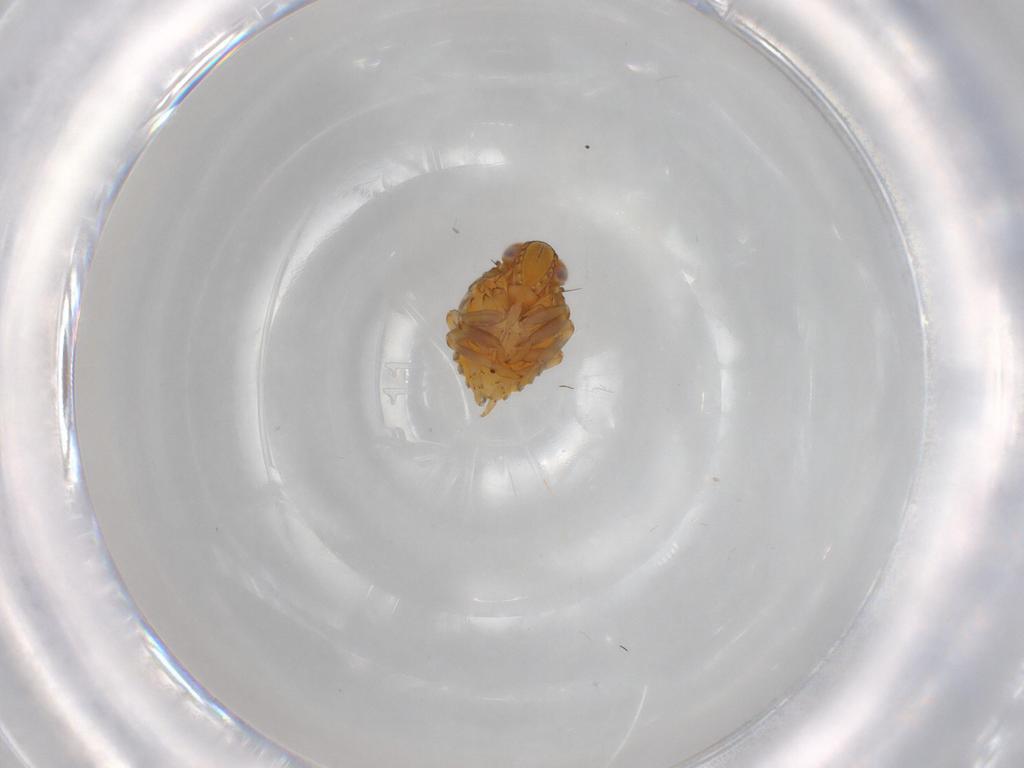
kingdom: Animalia
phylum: Arthropoda
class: Insecta
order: Hemiptera
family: Issidae
